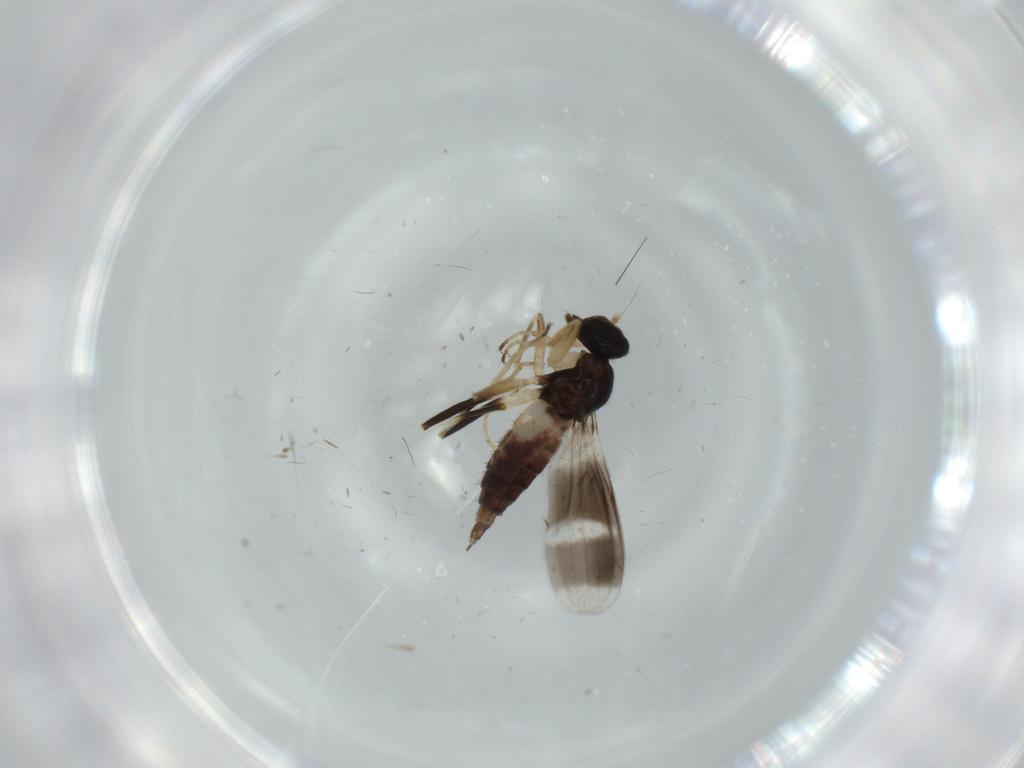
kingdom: Animalia
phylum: Arthropoda
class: Insecta
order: Diptera
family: Hybotidae
